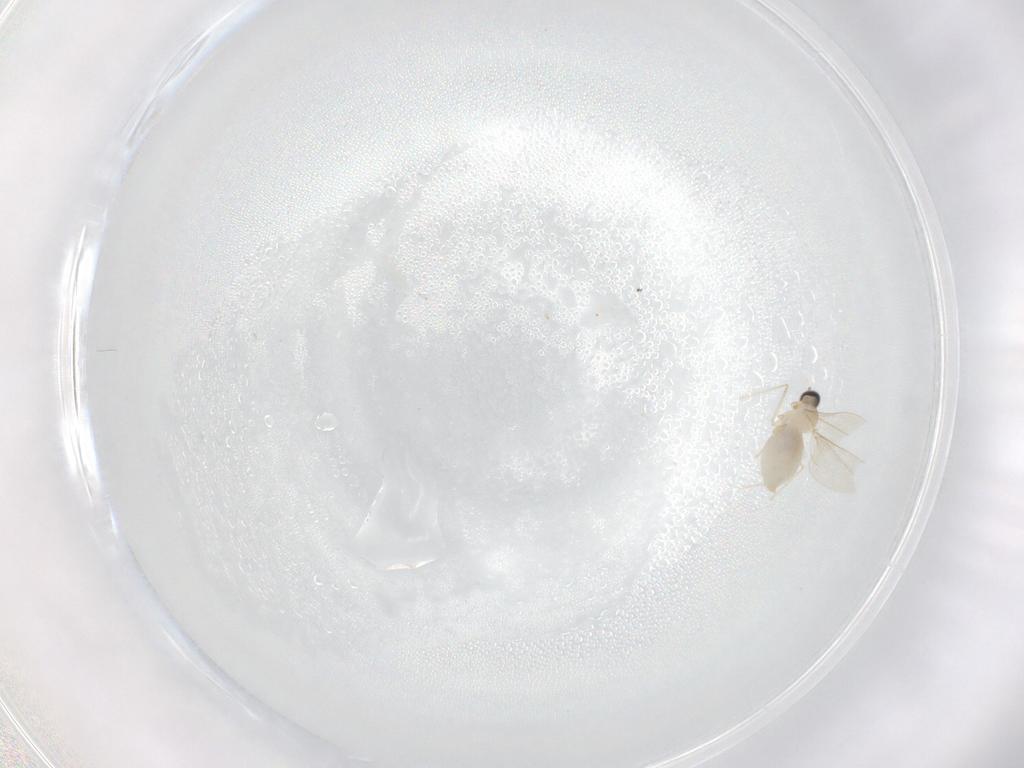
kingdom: Animalia
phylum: Arthropoda
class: Insecta
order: Diptera
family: Cecidomyiidae
